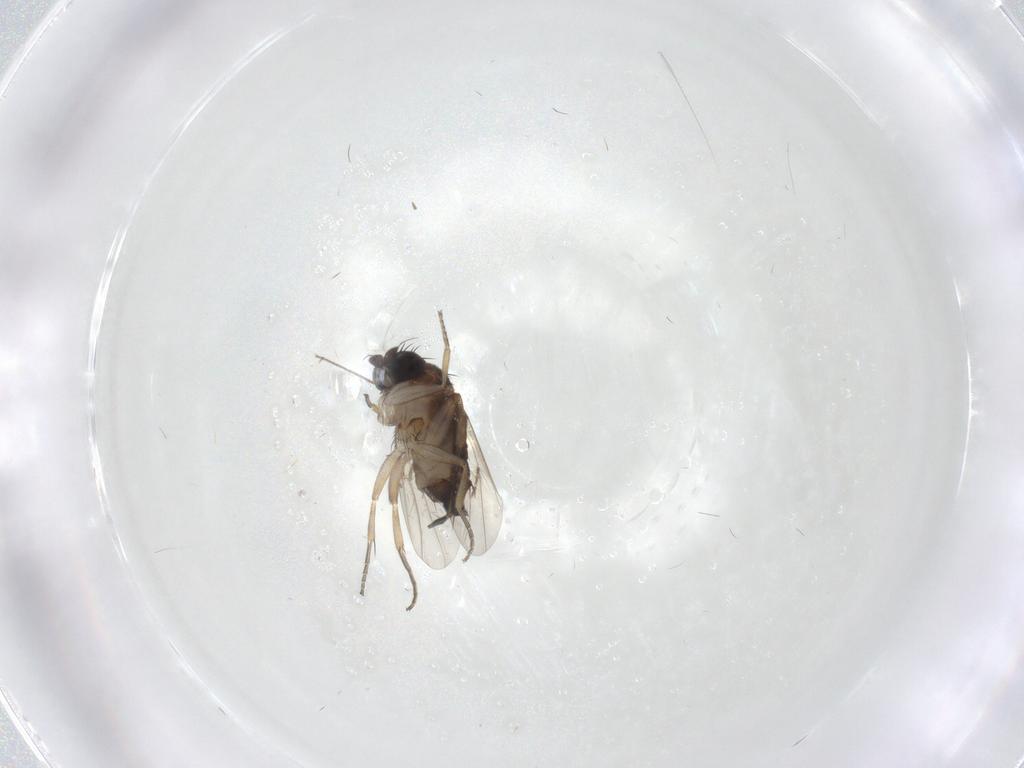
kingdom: Animalia
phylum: Arthropoda
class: Insecta
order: Diptera
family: Phoridae
